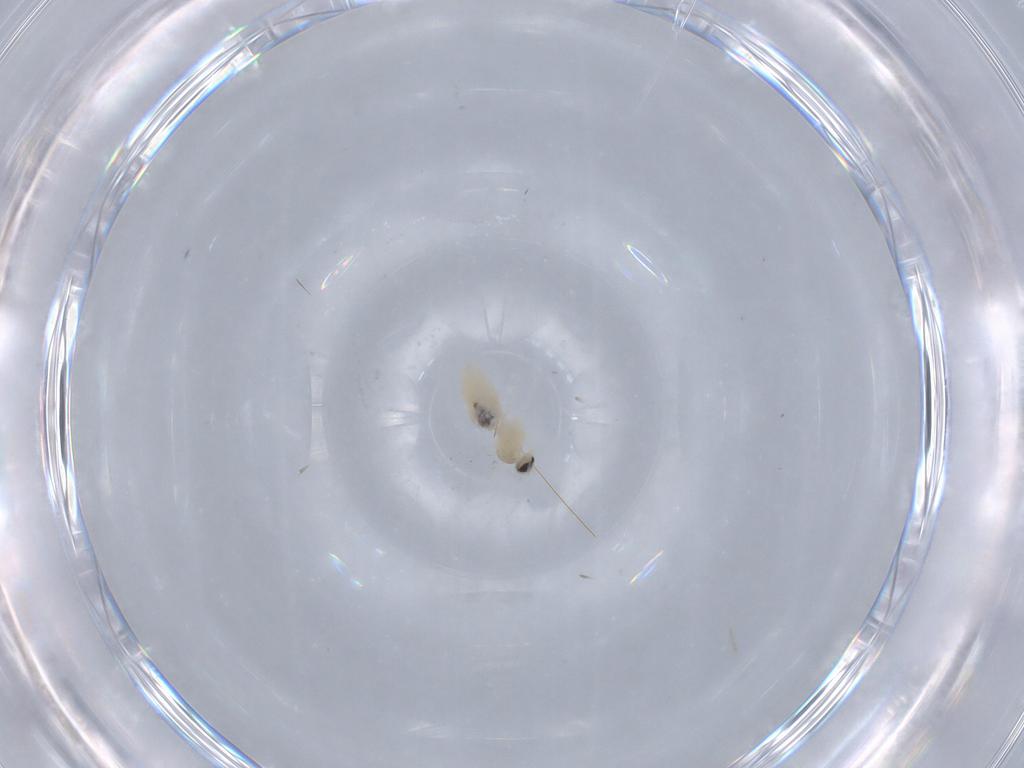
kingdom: Animalia
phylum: Arthropoda
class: Insecta
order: Diptera
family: Cecidomyiidae
